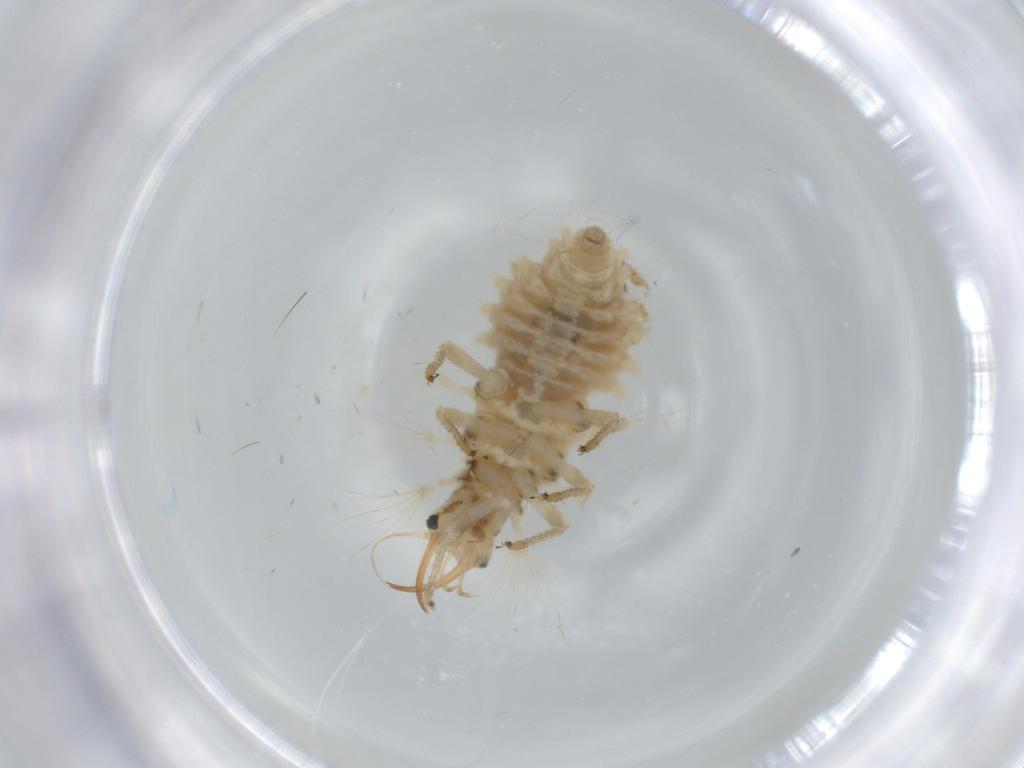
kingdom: Animalia
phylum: Arthropoda
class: Insecta
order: Neuroptera
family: Chrysopidae
